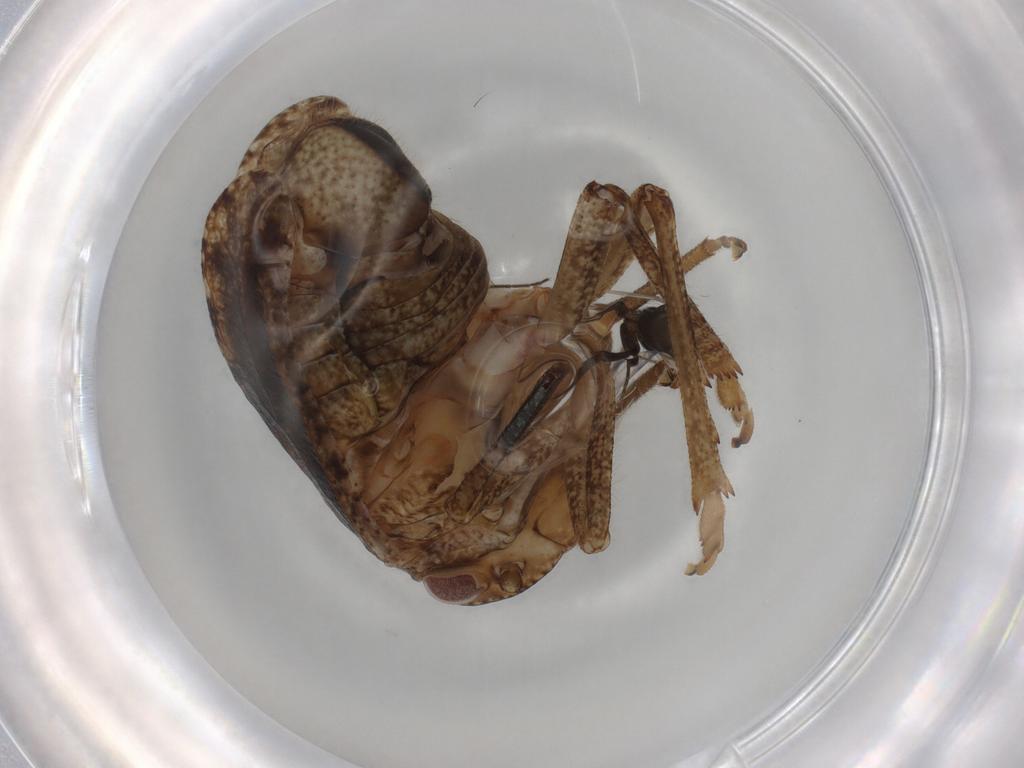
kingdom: Animalia
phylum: Arthropoda
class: Insecta
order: Hemiptera
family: Tropiduchidae
